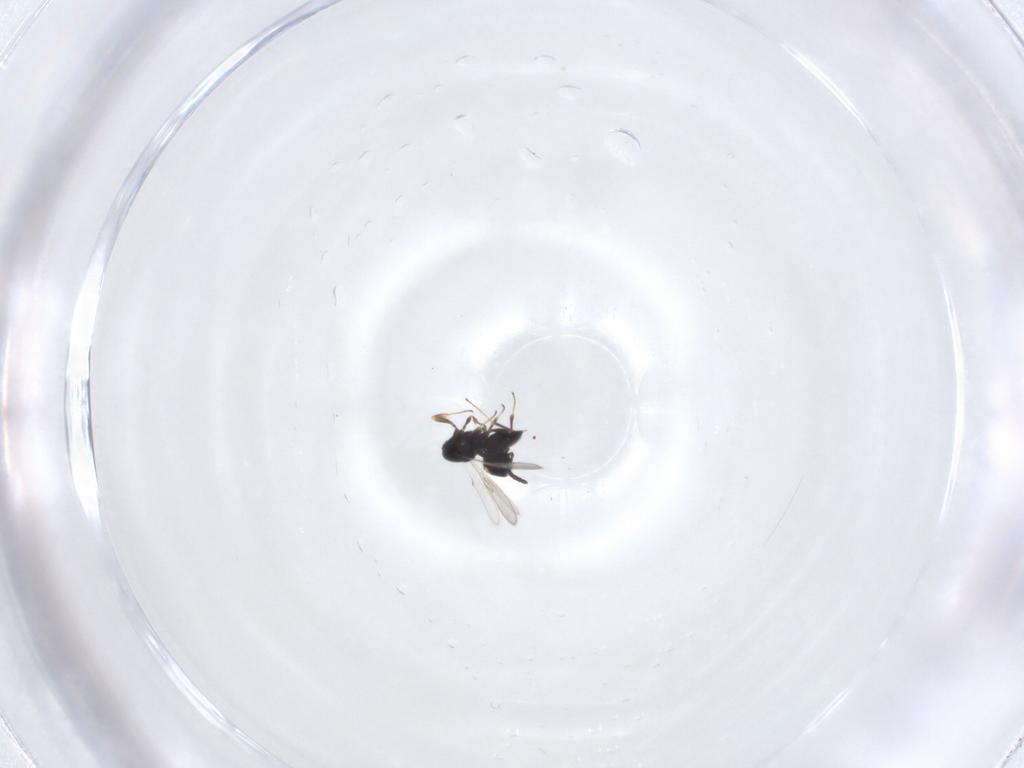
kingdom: Animalia
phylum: Arthropoda
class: Insecta
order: Hymenoptera
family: Scelionidae
